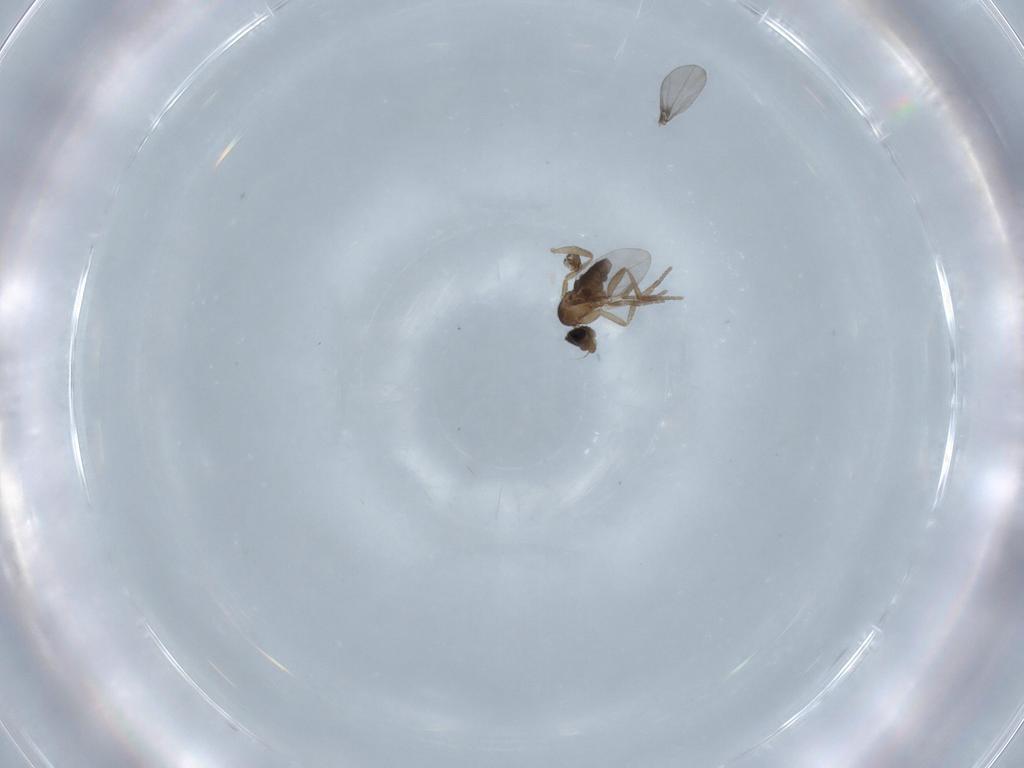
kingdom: Animalia
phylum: Arthropoda
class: Insecta
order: Diptera
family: Phoridae
